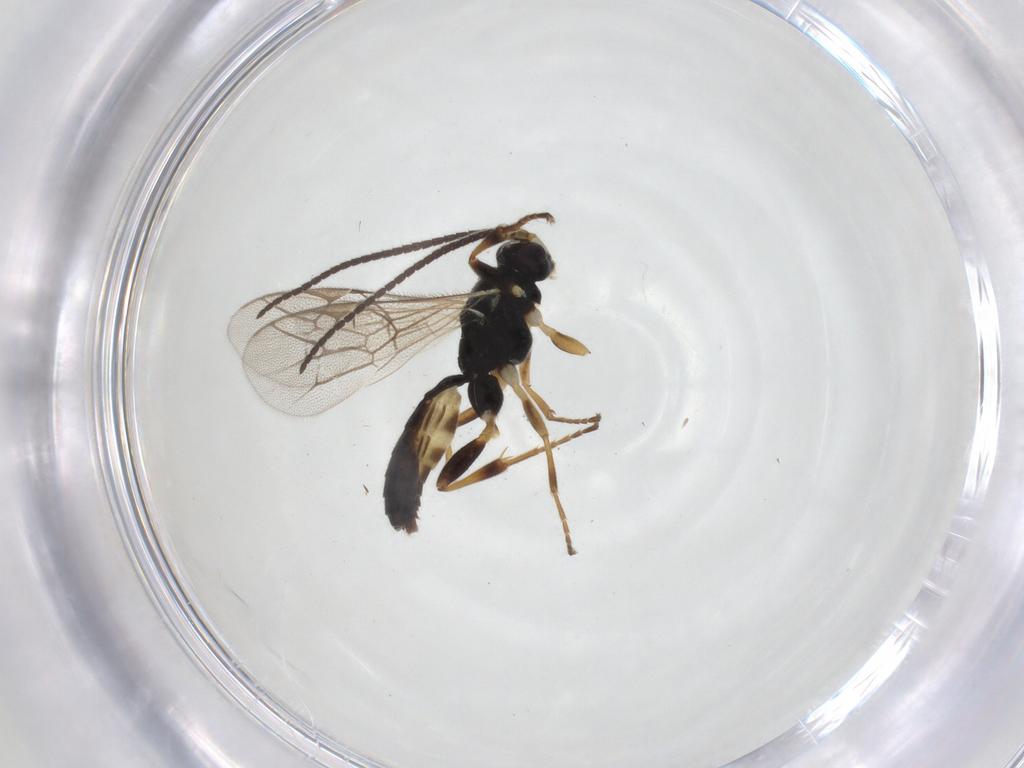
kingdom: Animalia
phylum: Arthropoda
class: Insecta
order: Hymenoptera
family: Ichneumonidae
